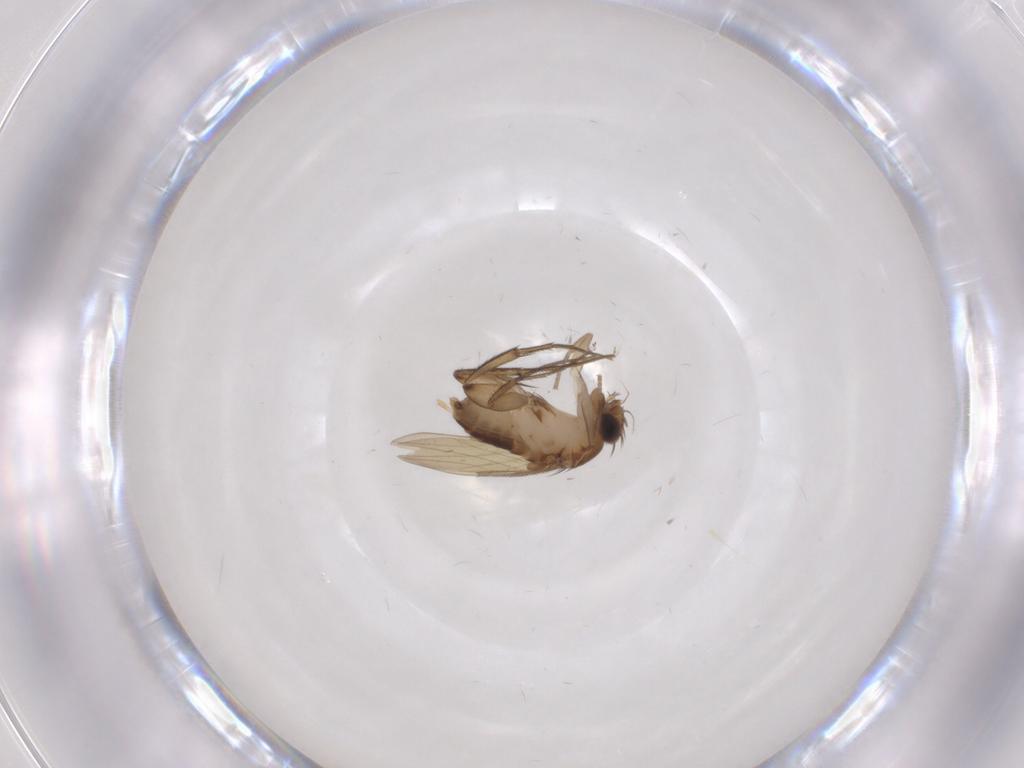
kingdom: Animalia
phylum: Arthropoda
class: Insecta
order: Diptera
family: Phoridae
